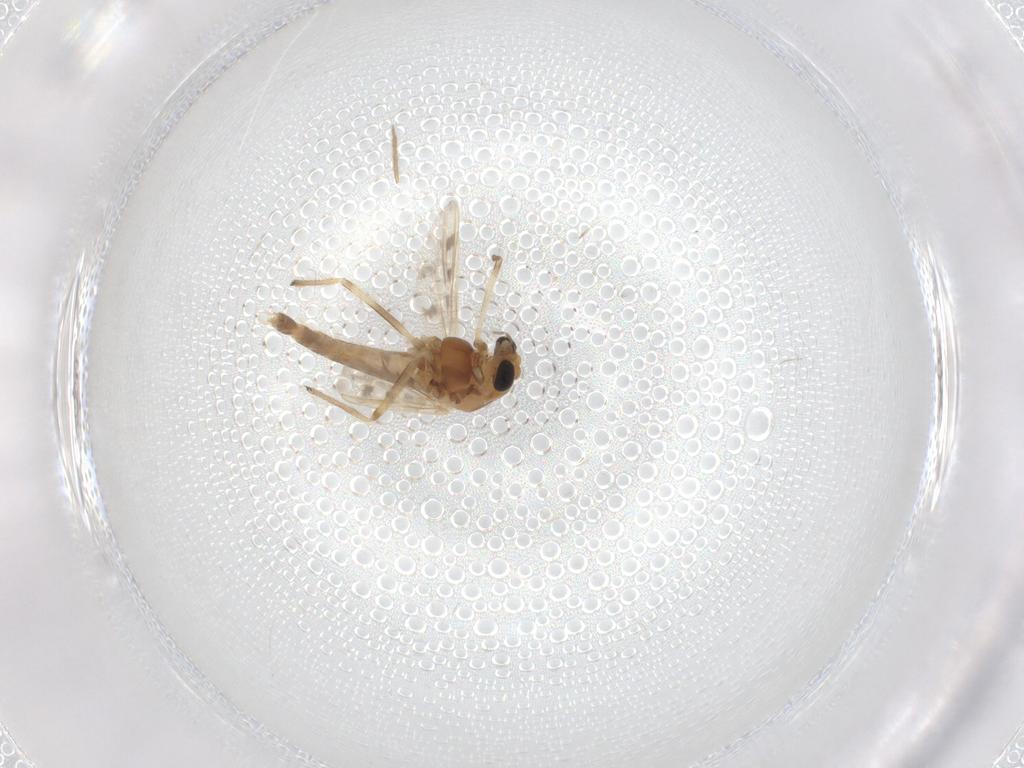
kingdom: Animalia
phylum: Arthropoda
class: Insecta
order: Diptera
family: Chironomidae
